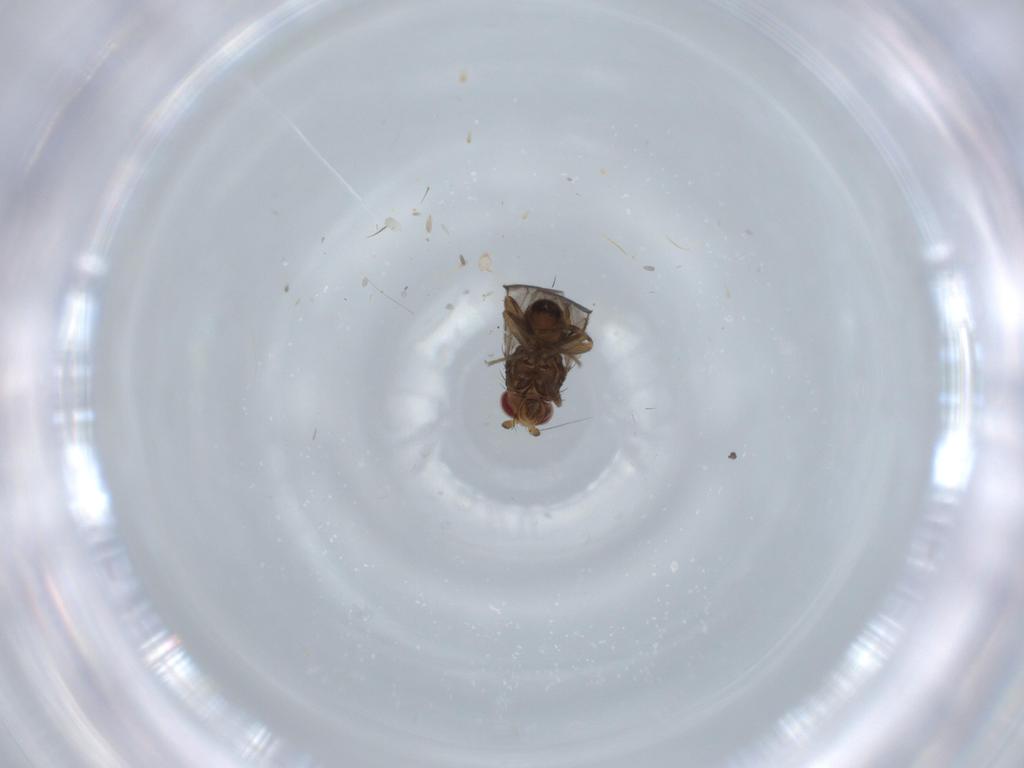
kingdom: Animalia
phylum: Arthropoda
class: Insecta
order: Diptera
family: Sphaeroceridae
